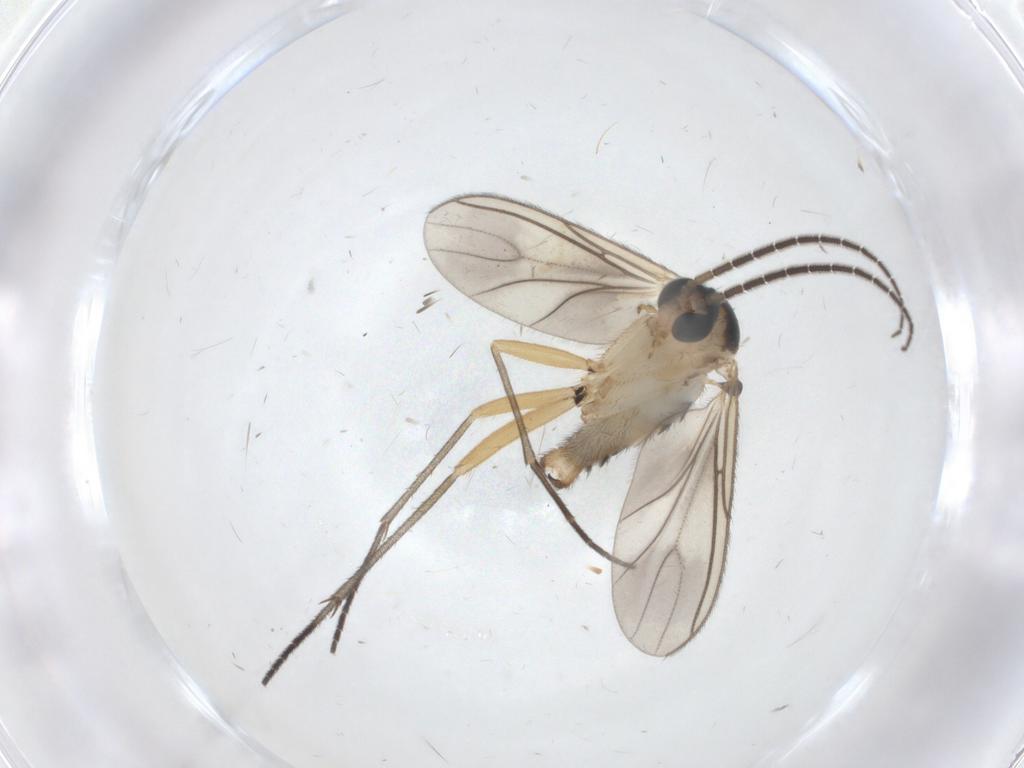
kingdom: Animalia
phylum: Arthropoda
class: Insecta
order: Diptera
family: Sciaridae
